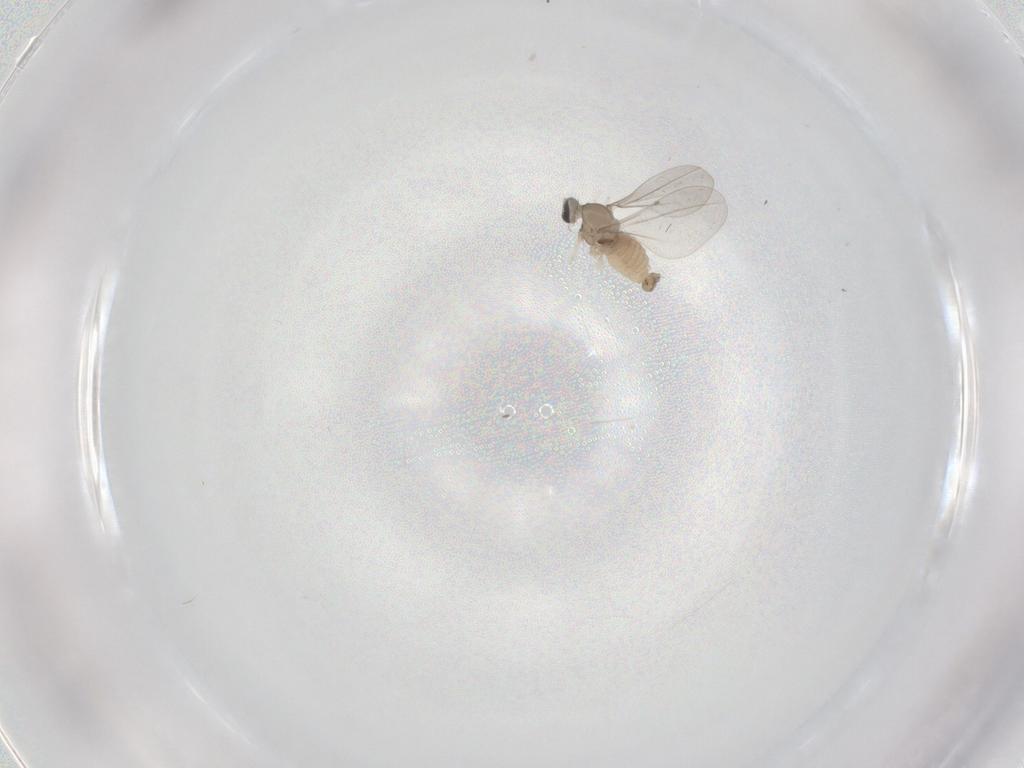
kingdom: Animalia
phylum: Arthropoda
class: Insecta
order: Diptera
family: Cecidomyiidae
